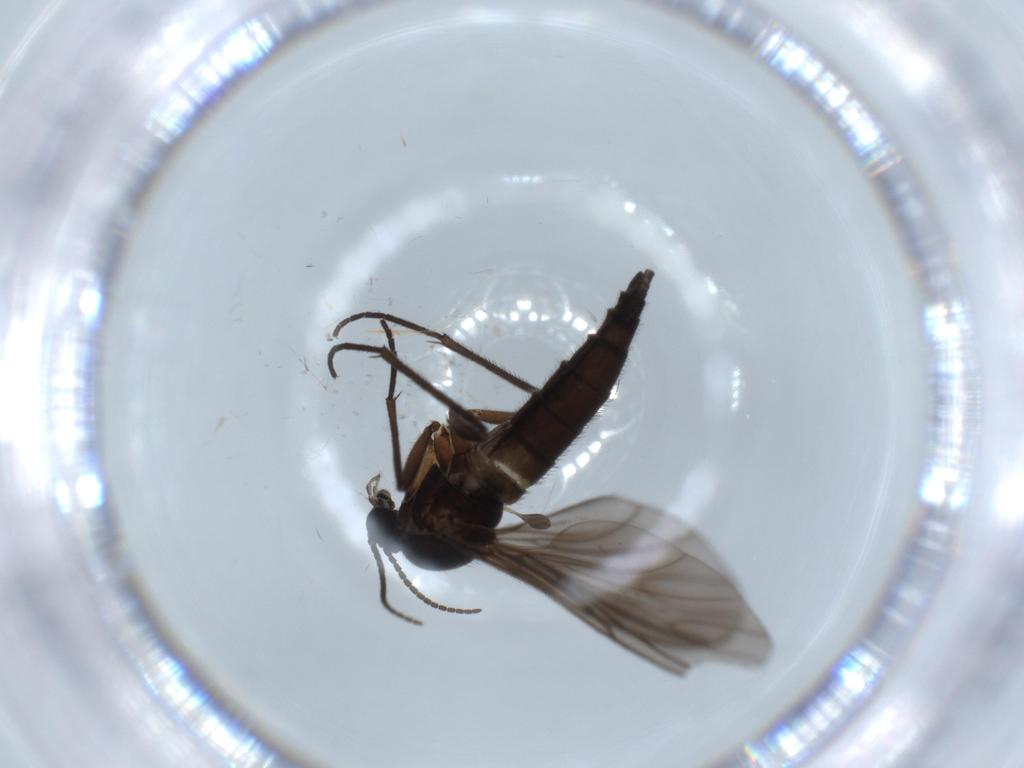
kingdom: Animalia
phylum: Arthropoda
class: Insecta
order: Diptera
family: Sciaridae
